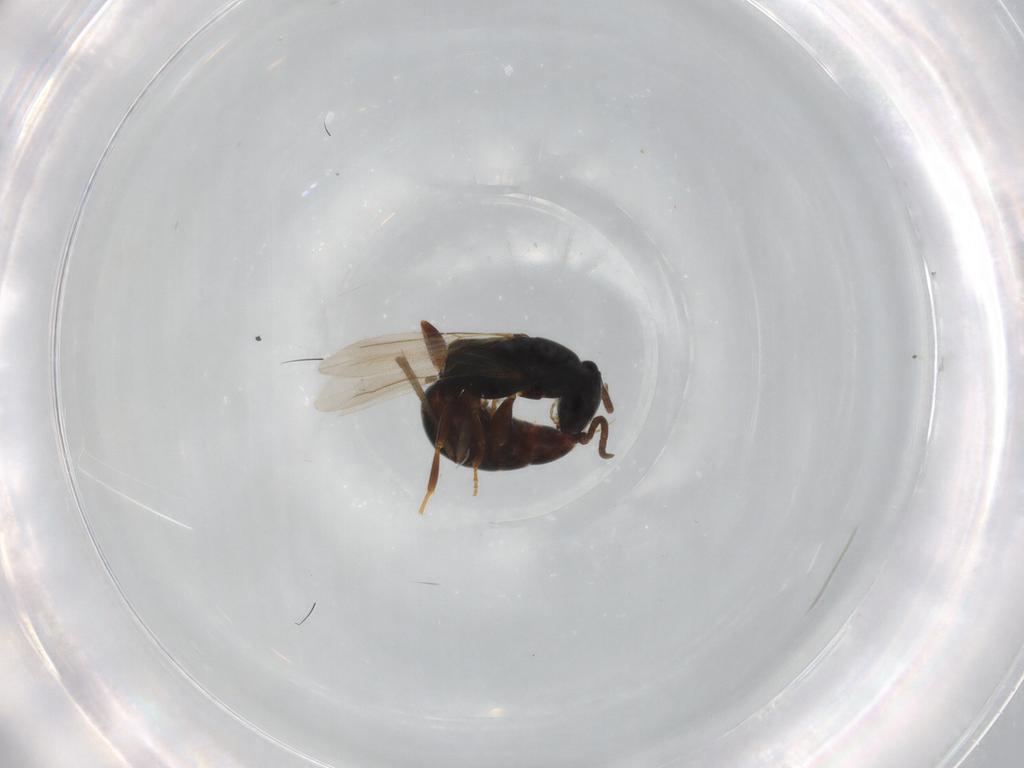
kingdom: Animalia
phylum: Arthropoda
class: Insecta
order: Hymenoptera
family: Bethylidae
